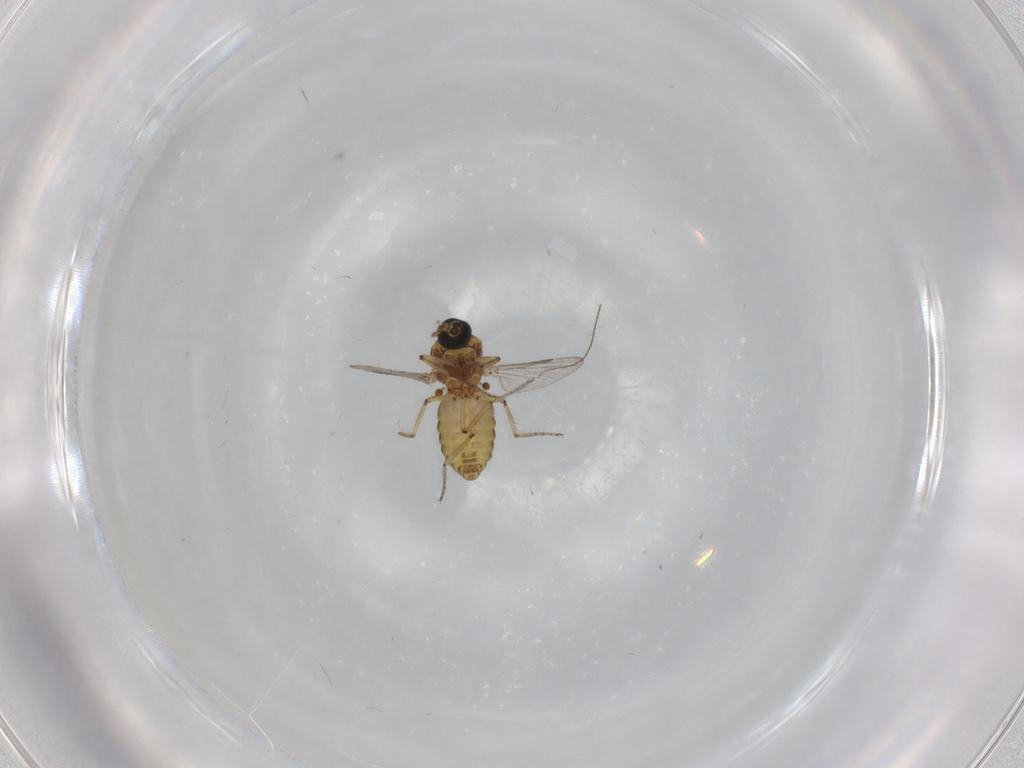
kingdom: Animalia
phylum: Arthropoda
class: Insecta
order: Diptera
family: Ceratopogonidae
